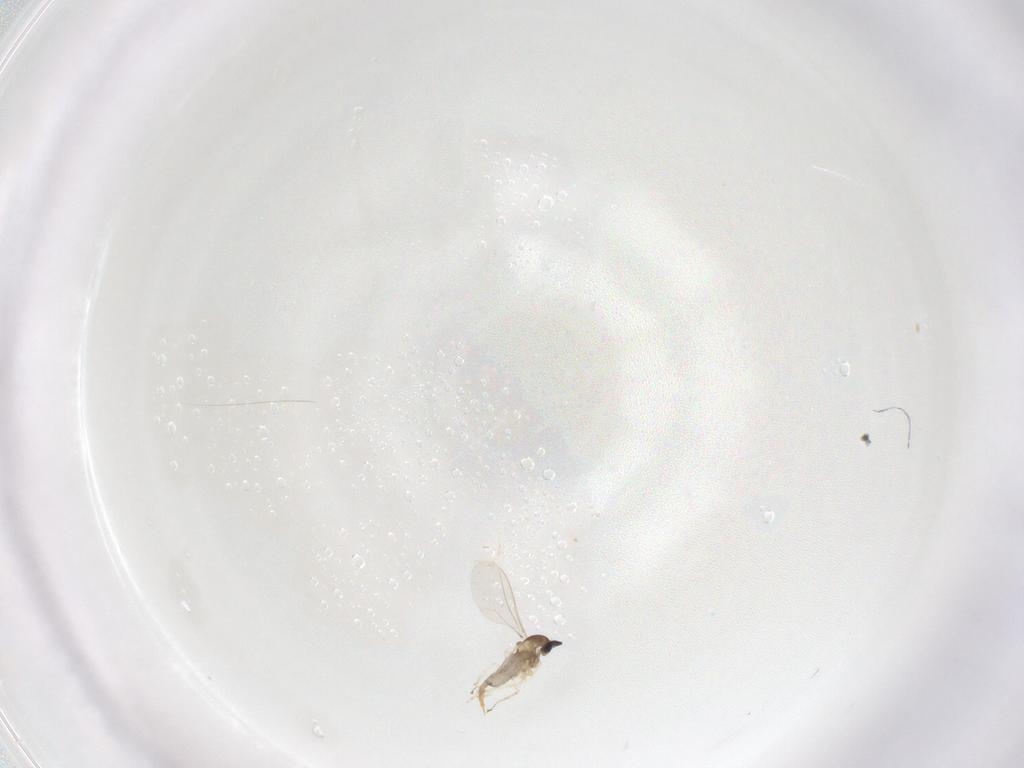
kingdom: Animalia
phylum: Arthropoda
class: Insecta
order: Diptera
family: Cecidomyiidae
